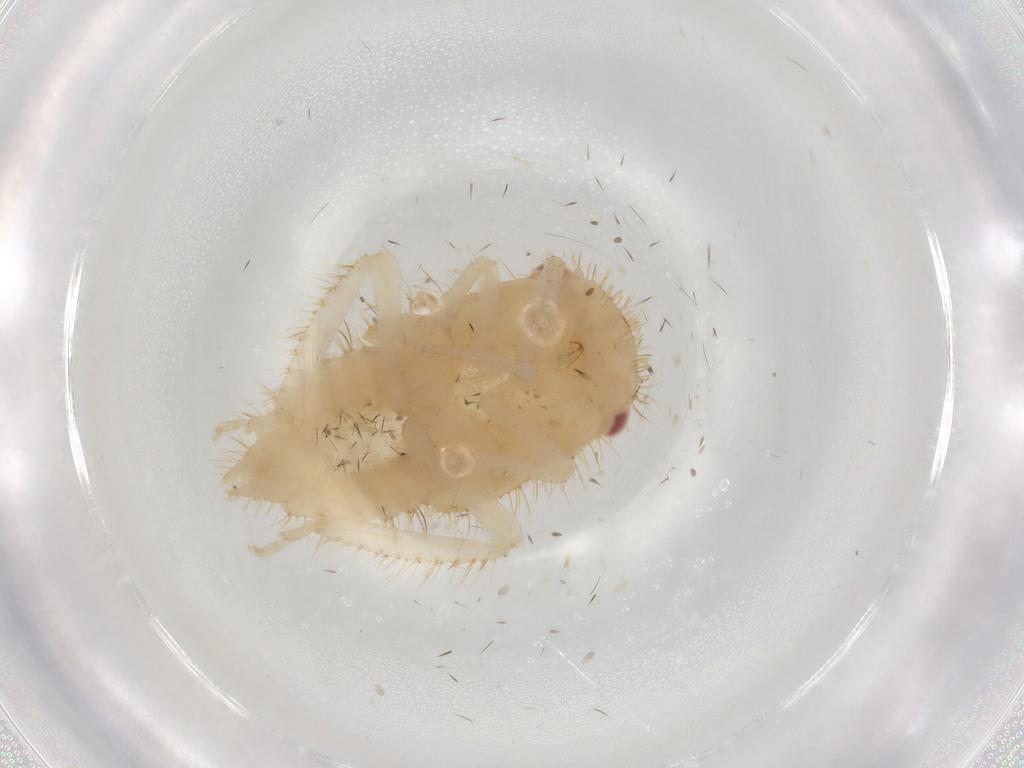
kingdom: Animalia
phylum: Arthropoda
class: Insecta
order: Hemiptera
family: Cicadellidae
